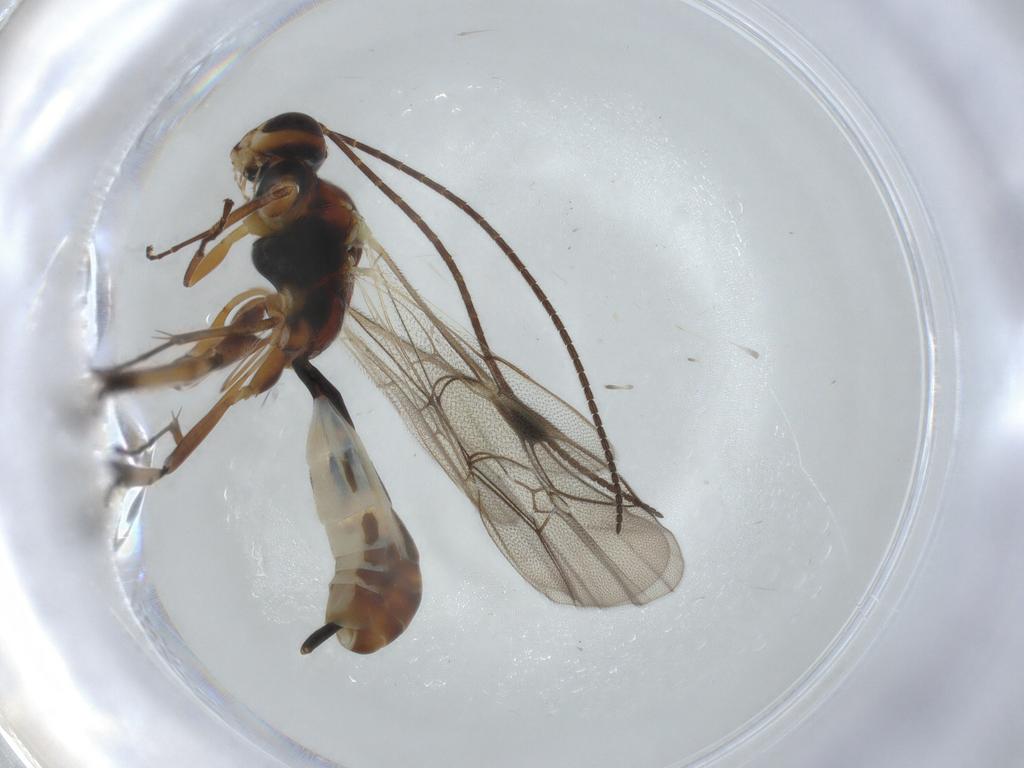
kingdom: Animalia
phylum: Arthropoda
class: Insecta
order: Hymenoptera
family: Ichneumonidae
